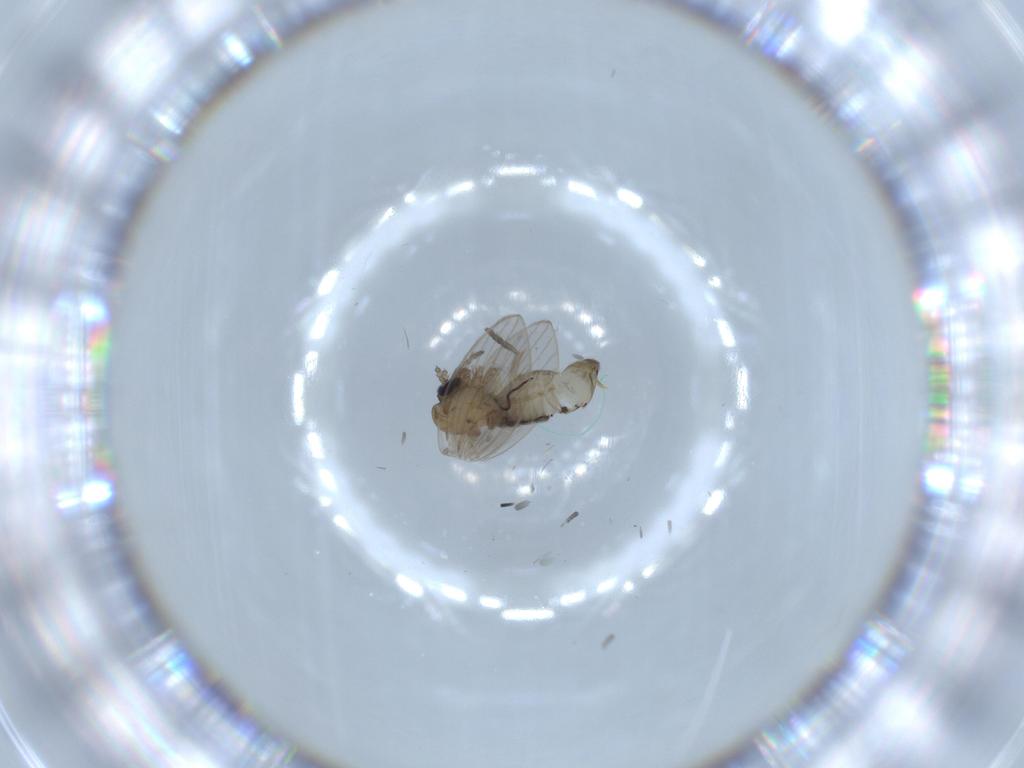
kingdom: Animalia
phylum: Arthropoda
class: Insecta
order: Diptera
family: Psychodidae
